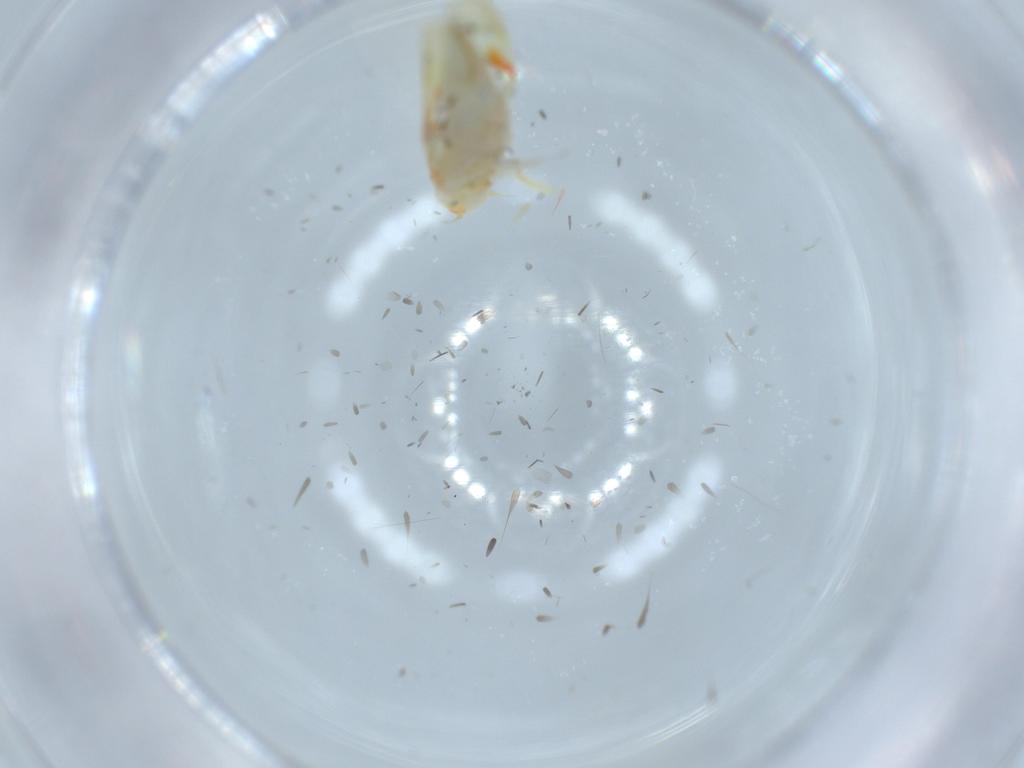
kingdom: Animalia
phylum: Arthropoda
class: Insecta
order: Hemiptera
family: Cicadellidae
